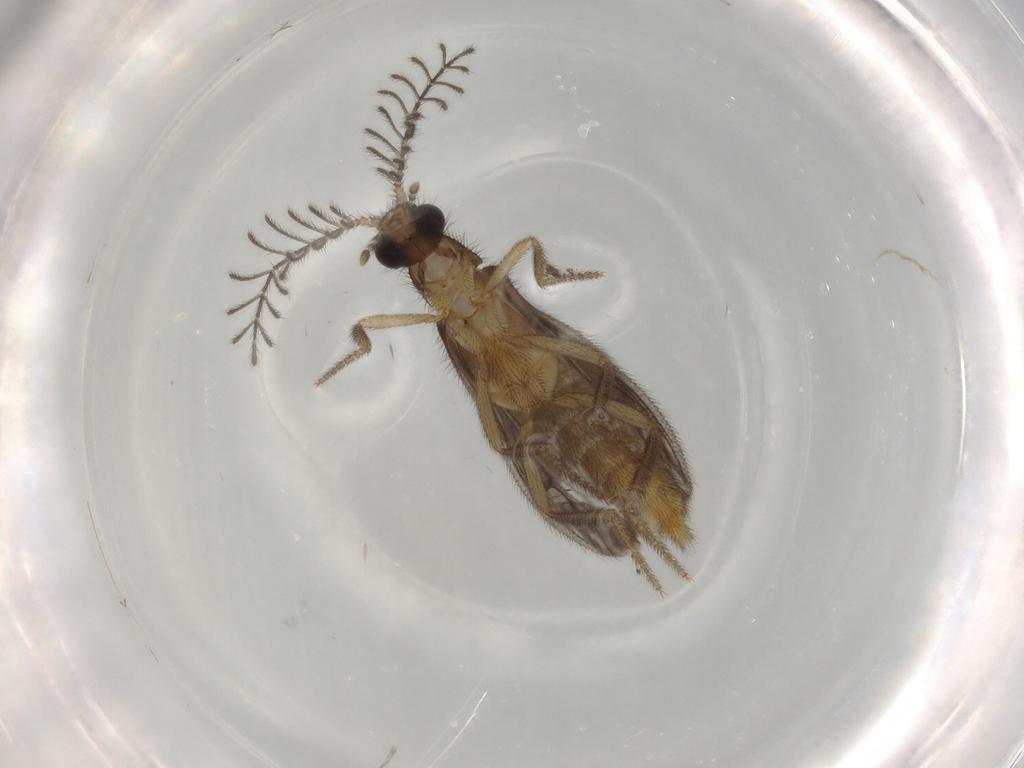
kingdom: Animalia
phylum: Arthropoda
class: Insecta
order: Coleoptera
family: Phengodidae
